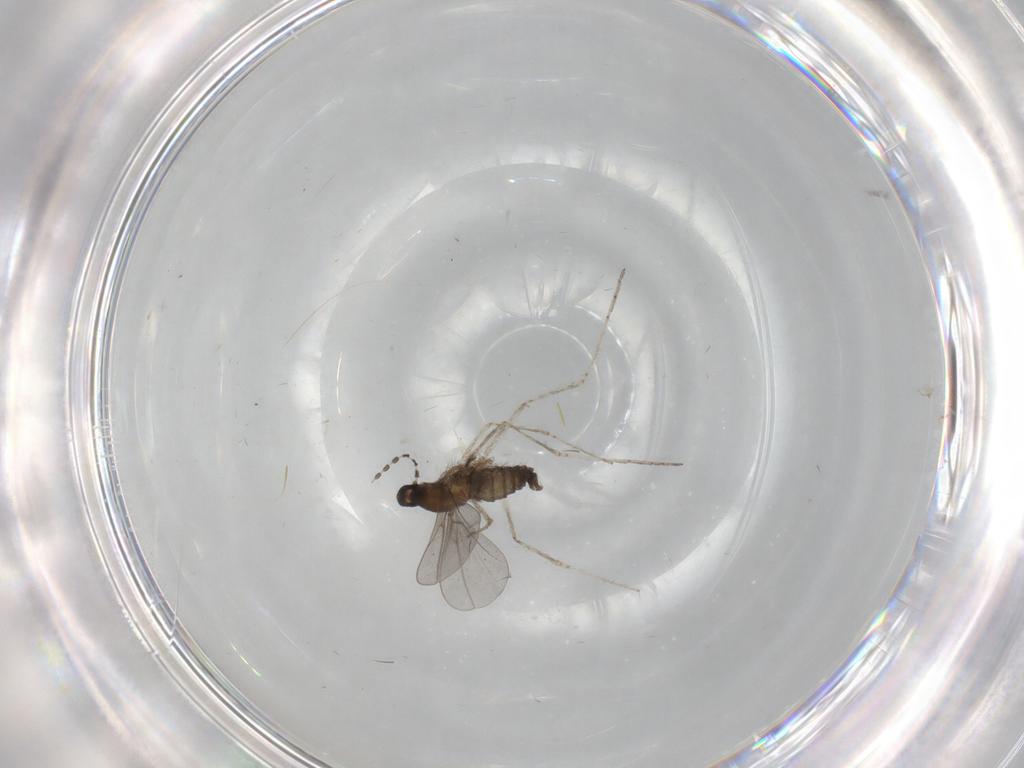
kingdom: Animalia
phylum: Arthropoda
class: Insecta
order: Diptera
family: Cecidomyiidae
